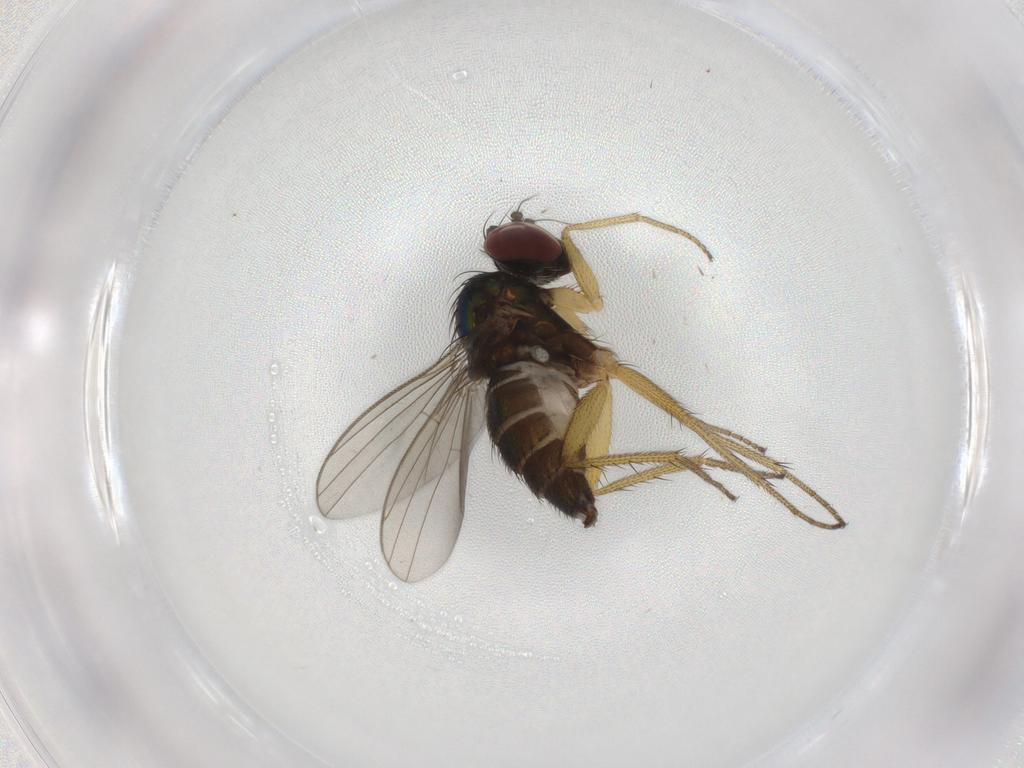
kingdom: Animalia
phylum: Arthropoda
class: Insecta
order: Diptera
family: Dolichopodidae
